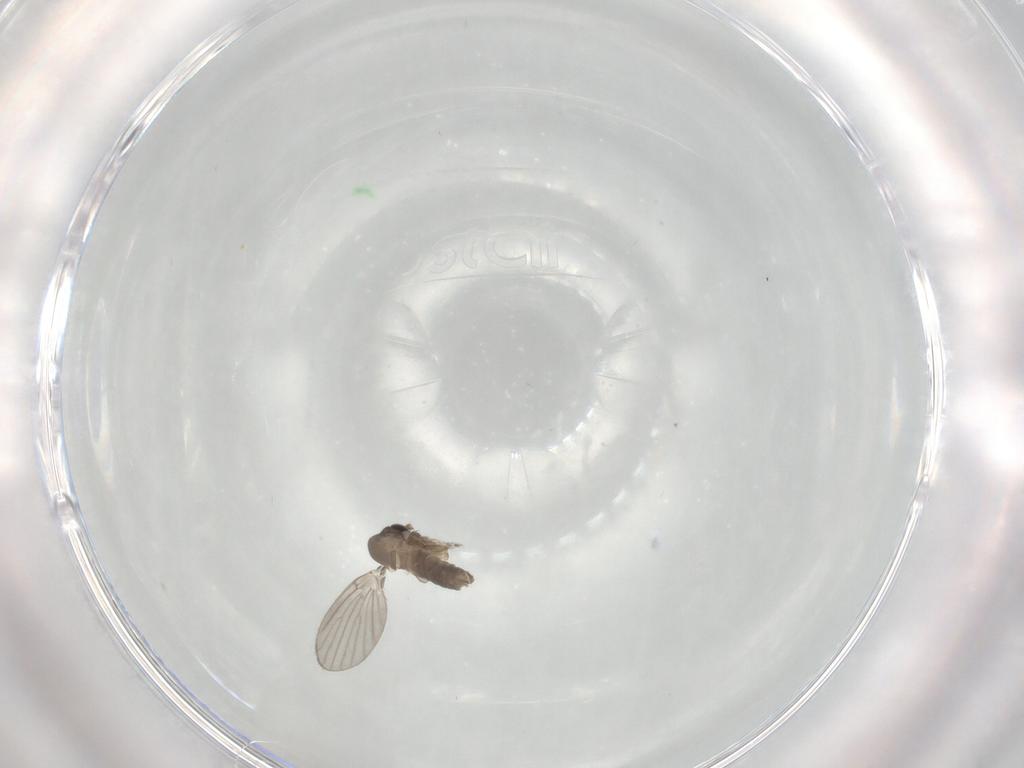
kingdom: Animalia
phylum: Arthropoda
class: Insecta
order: Diptera
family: Psychodidae
